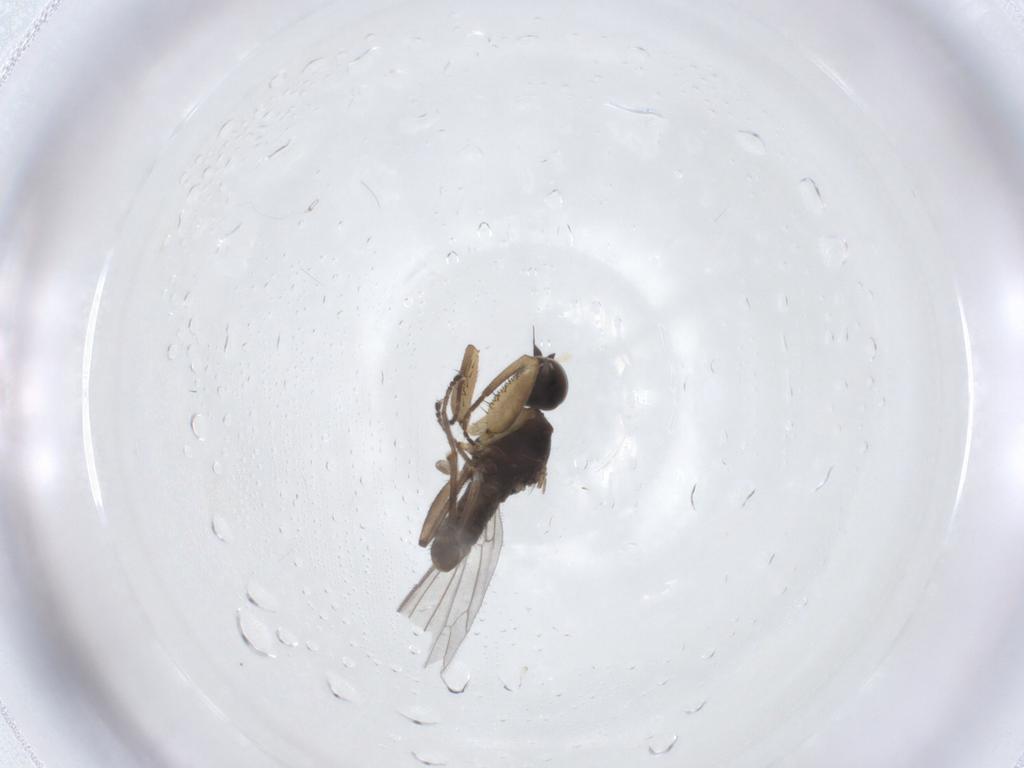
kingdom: Animalia
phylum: Arthropoda
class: Insecta
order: Diptera
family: Empididae
